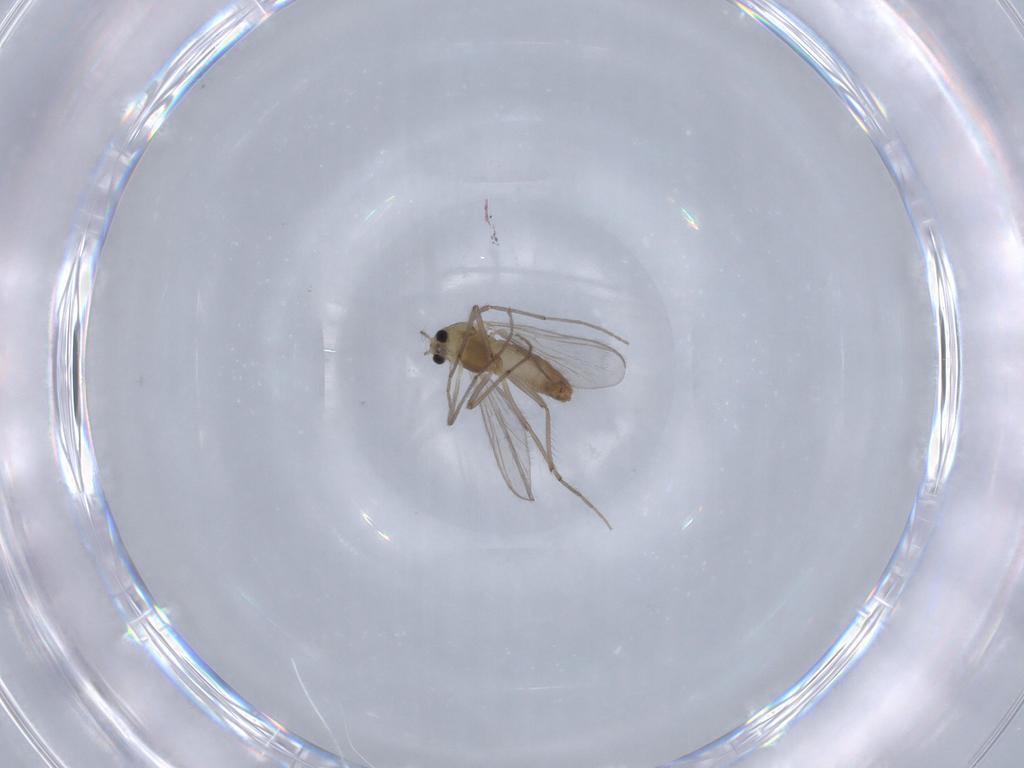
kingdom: Animalia
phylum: Arthropoda
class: Insecta
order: Diptera
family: Chironomidae
